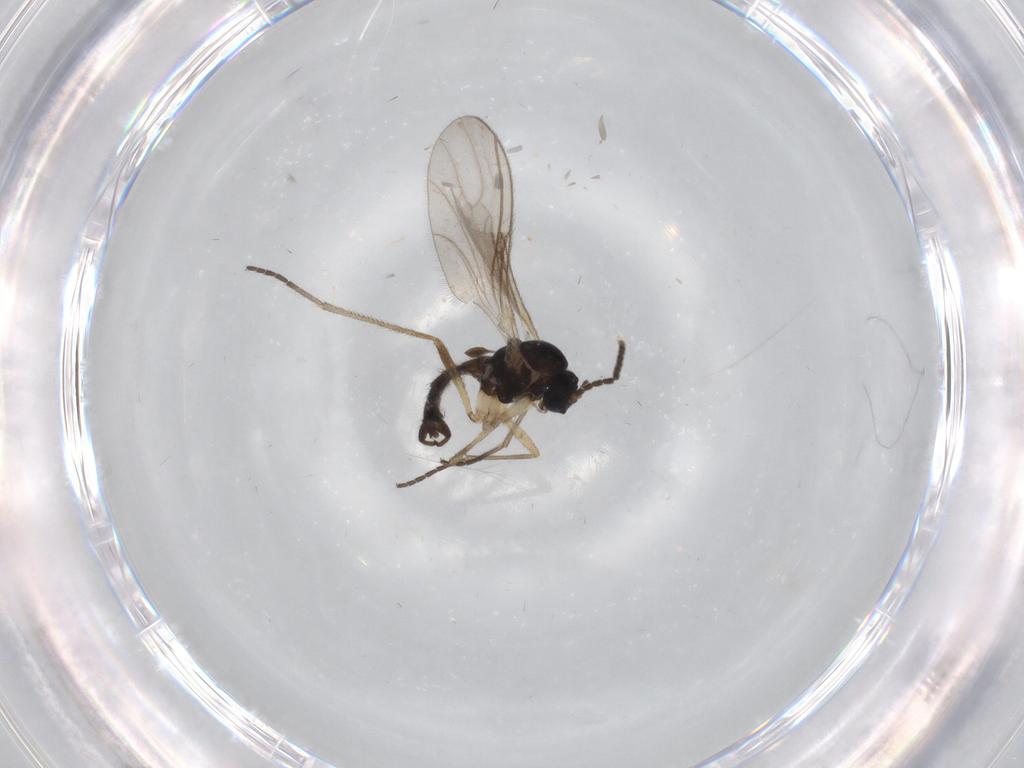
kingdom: Animalia
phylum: Arthropoda
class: Insecta
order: Diptera
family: Sciaridae
